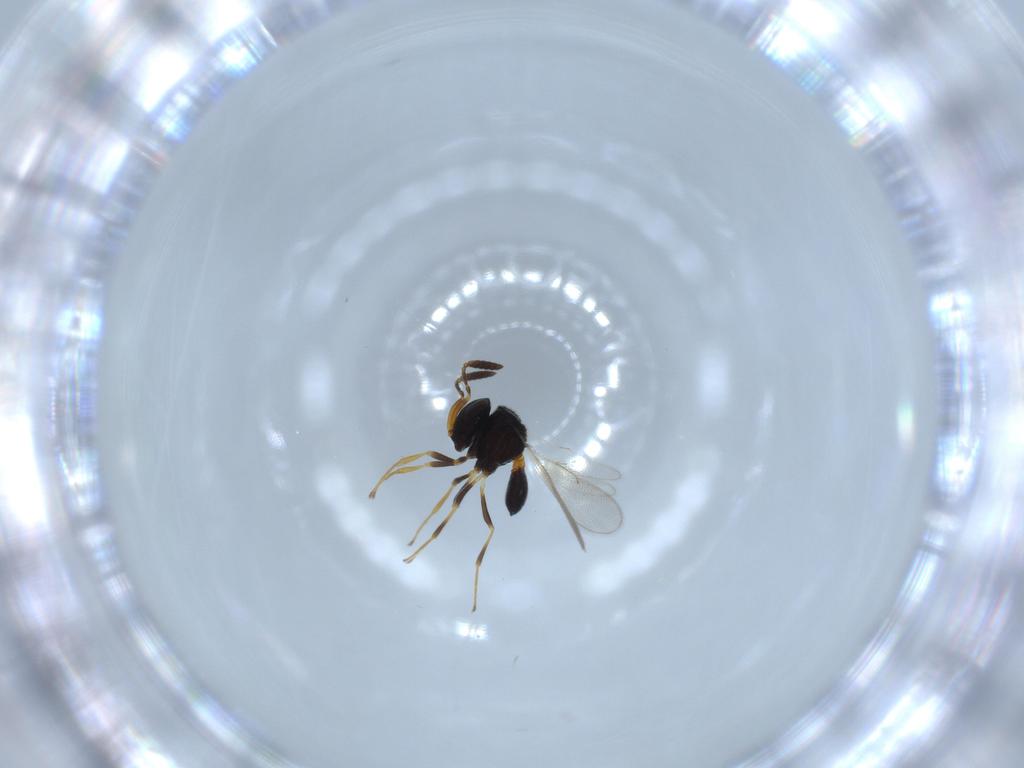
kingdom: Animalia
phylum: Arthropoda
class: Insecta
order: Hymenoptera
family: Scelionidae
